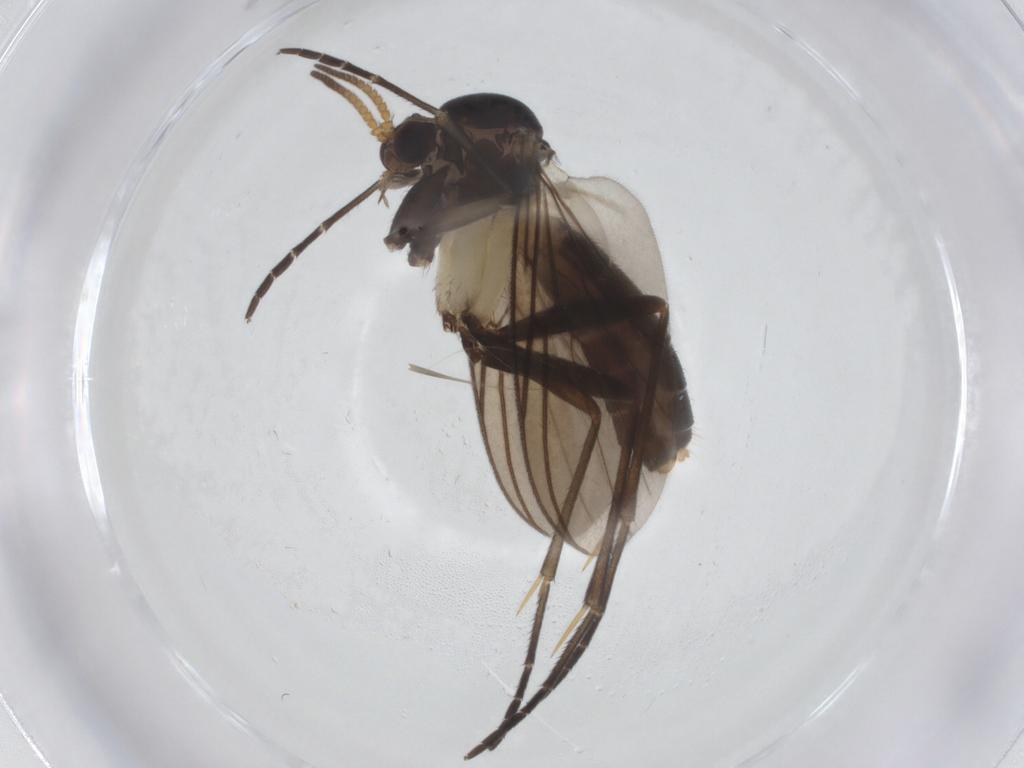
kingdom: Animalia
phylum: Arthropoda
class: Insecta
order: Diptera
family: Drosophilidae
